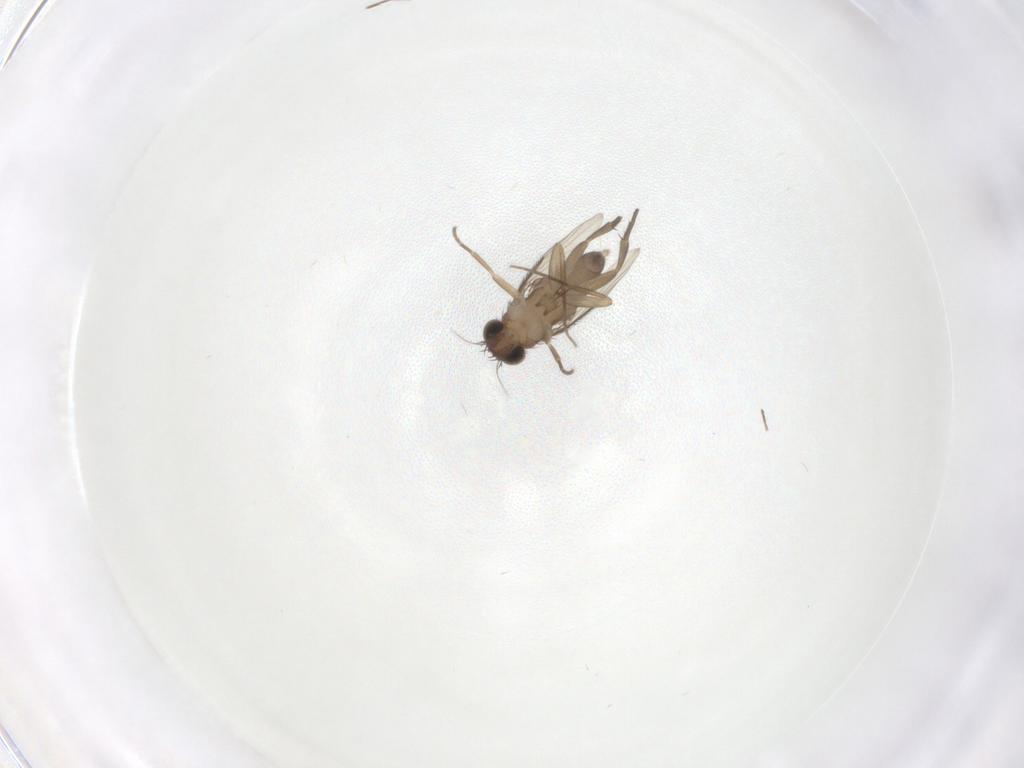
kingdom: Animalia
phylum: Arthropoda
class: Insecta
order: Diptera
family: Phoridae
